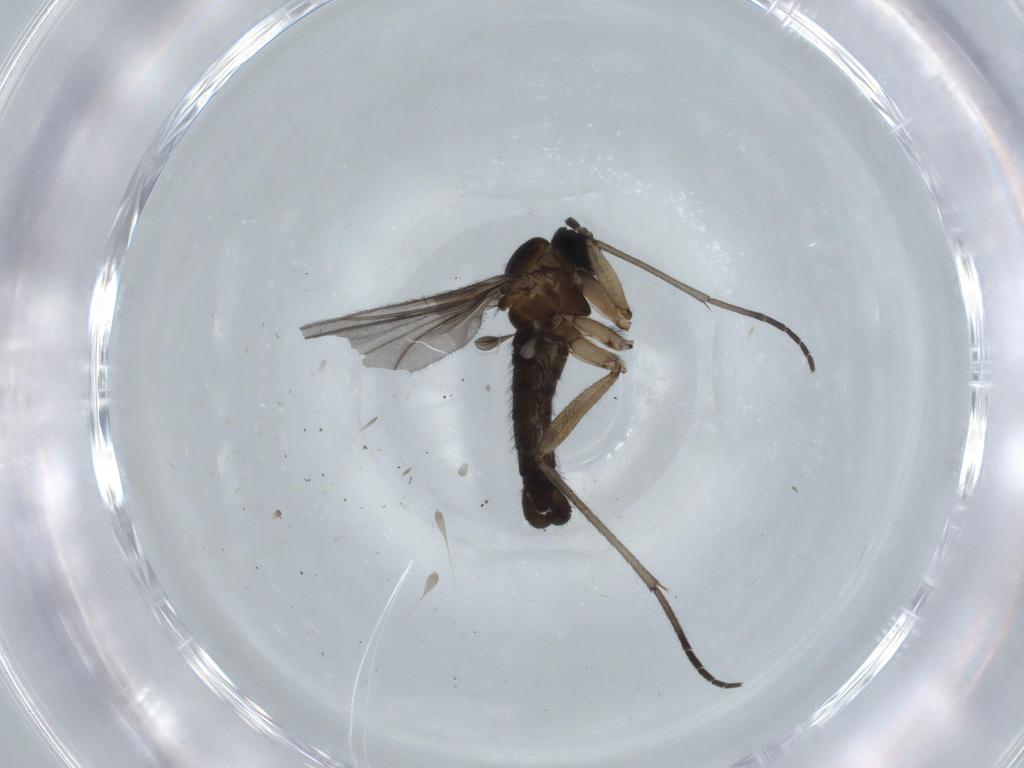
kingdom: Animalia
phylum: Arthropoda
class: Insecta
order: Diptera
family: Sciaridae
